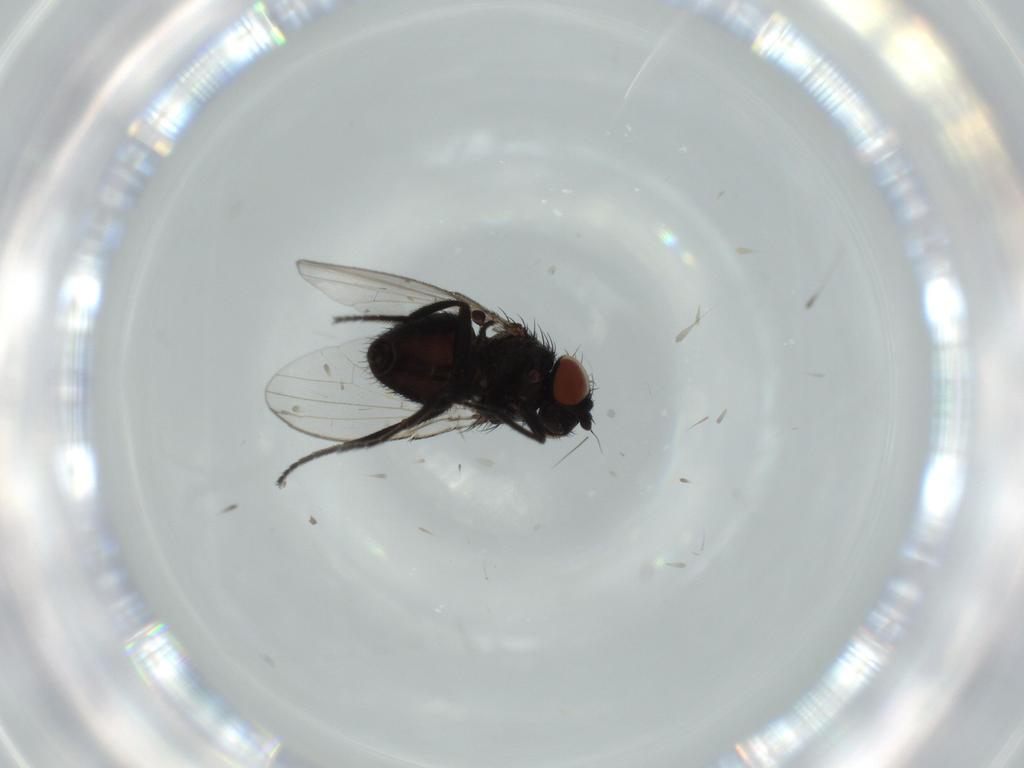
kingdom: Animalia
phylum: Arthropoda
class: Insecta
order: Diptera
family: Milichiidae
